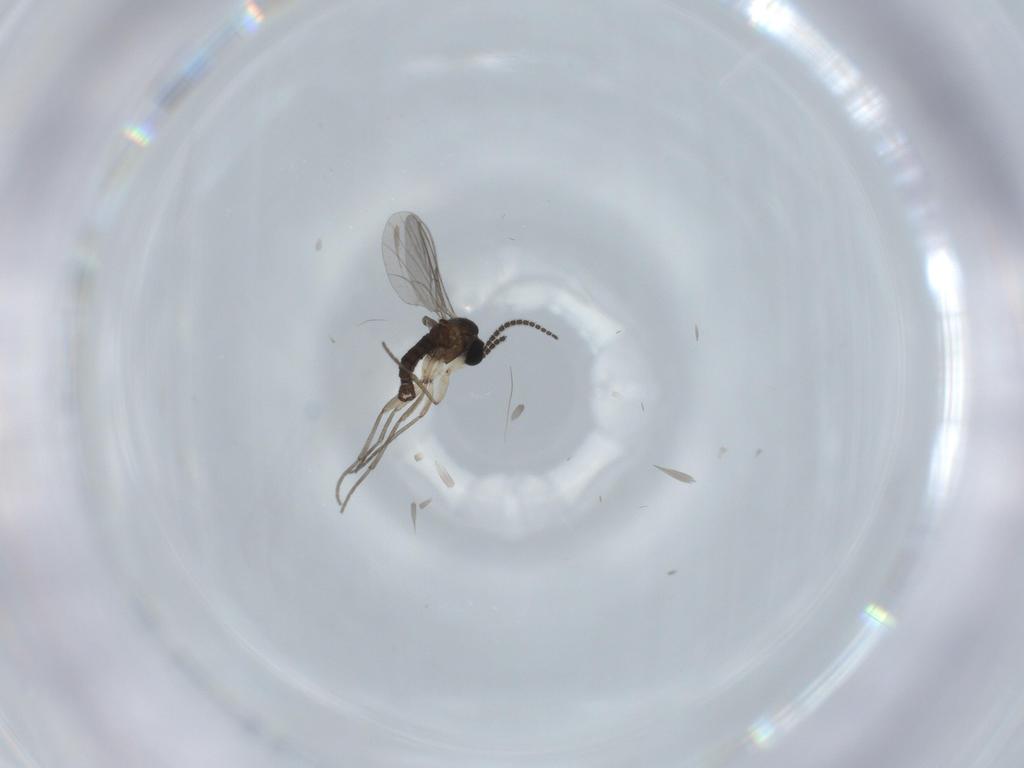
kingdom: Animalia
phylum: Arthropoda
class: Insecta
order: Diptera
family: Sciaridae
